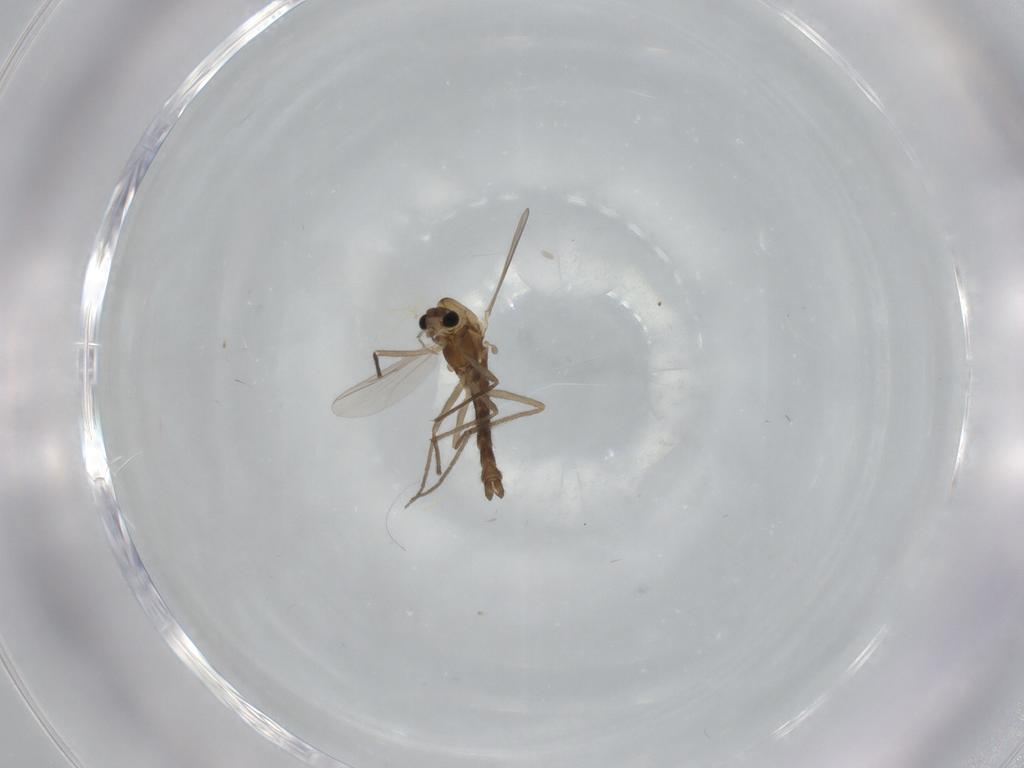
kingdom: Animalia
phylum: Arthropoda
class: Insecta
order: Diptera
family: Chironomidae
